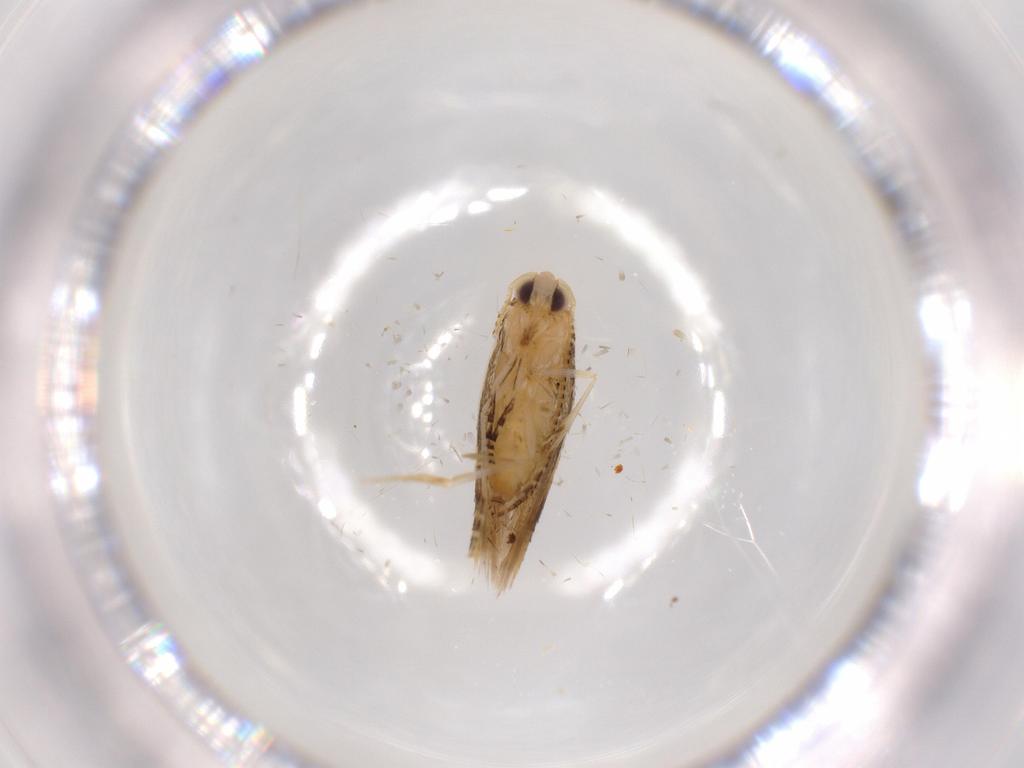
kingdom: Animalia
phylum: Arthropoda
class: Insecta
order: Lepidoptera
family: Bucculatricidae
